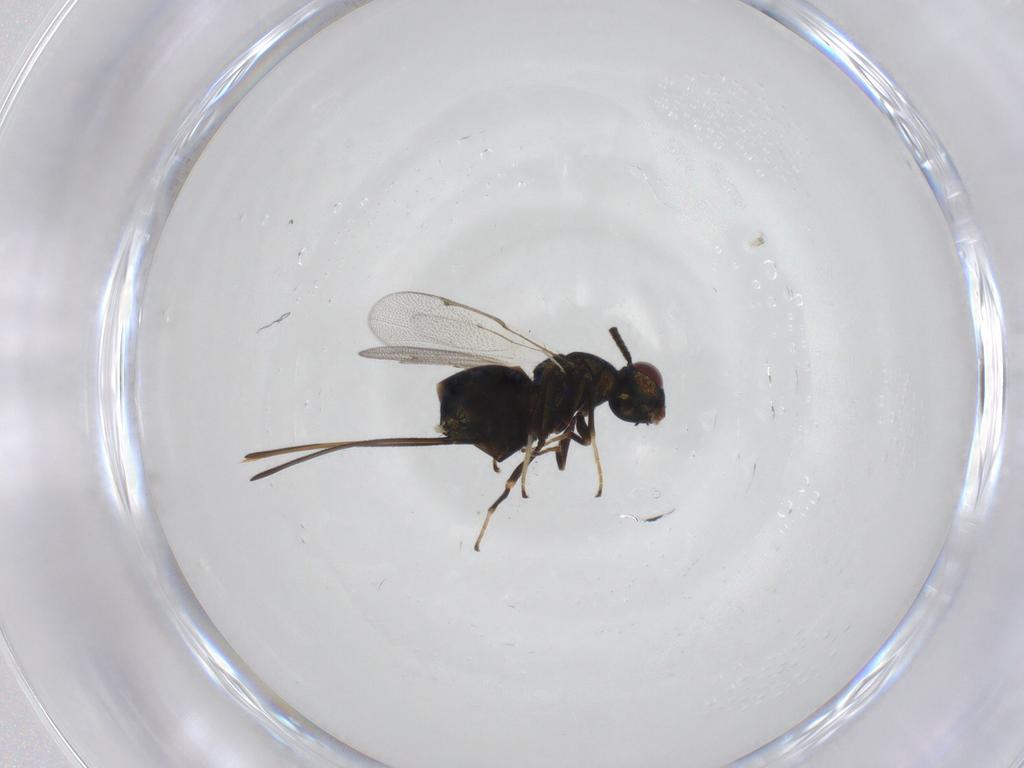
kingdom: Animalia
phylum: Arthropoda
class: Insecta
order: Hymenoptera
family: Torymidae
